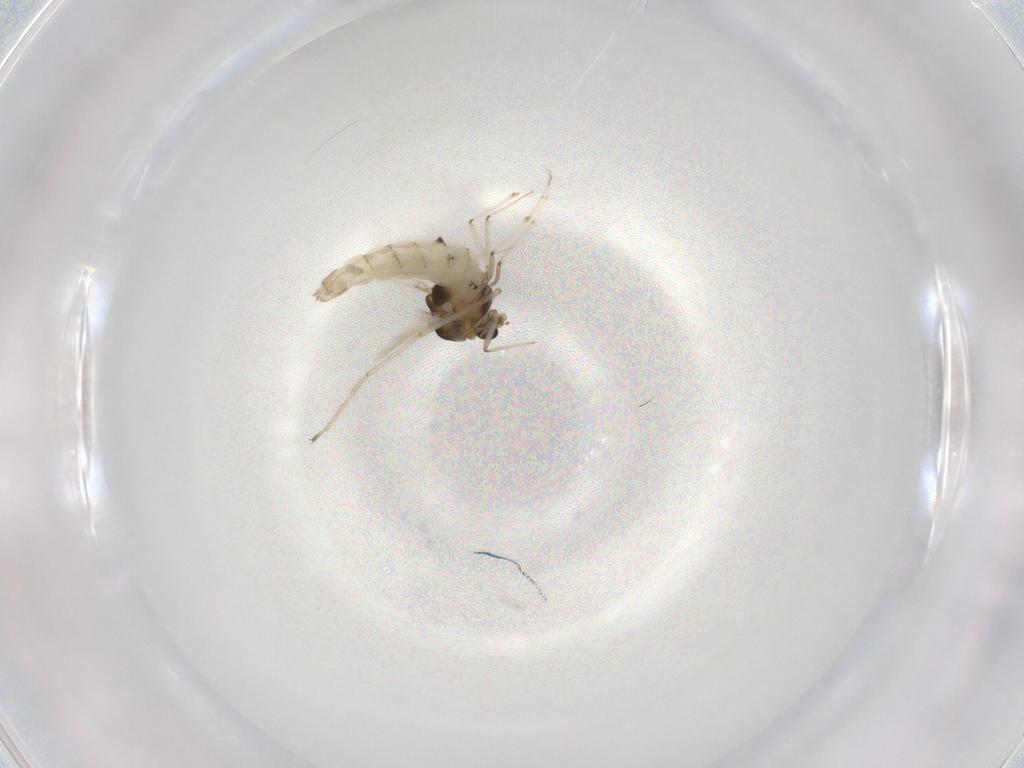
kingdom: Animalia
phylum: Arthropoda
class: Insecta
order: Diptera
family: Chironomidae
